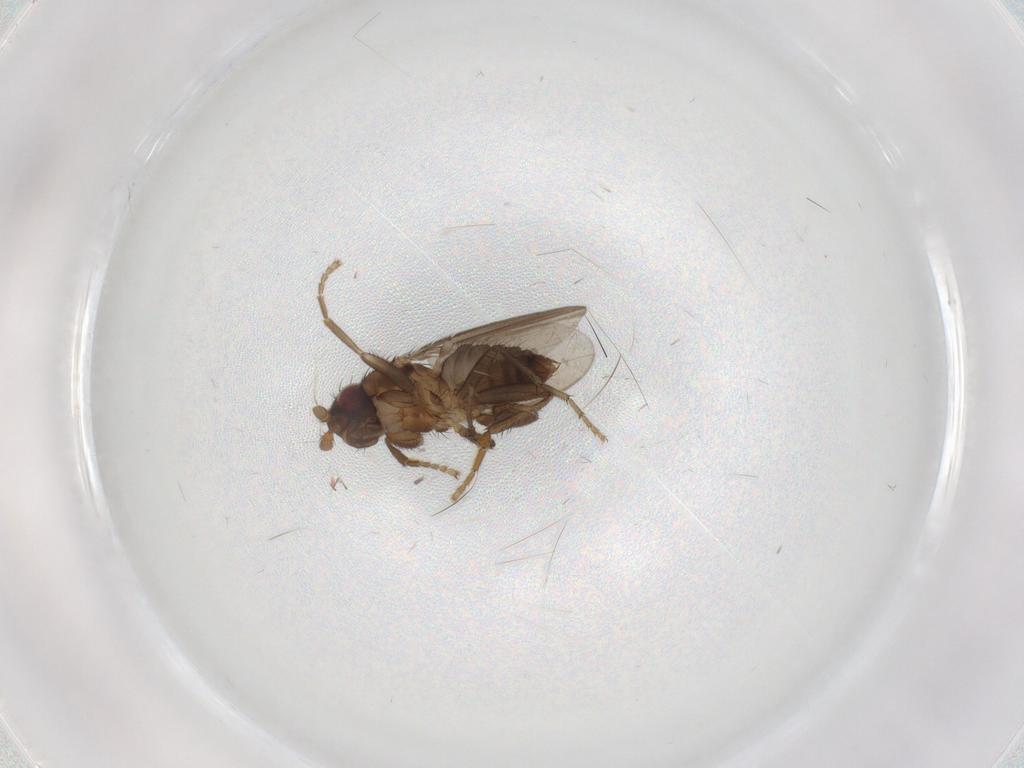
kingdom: Animalia
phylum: Arthropoda
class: Insecta
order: Diptera
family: Chironomidae
